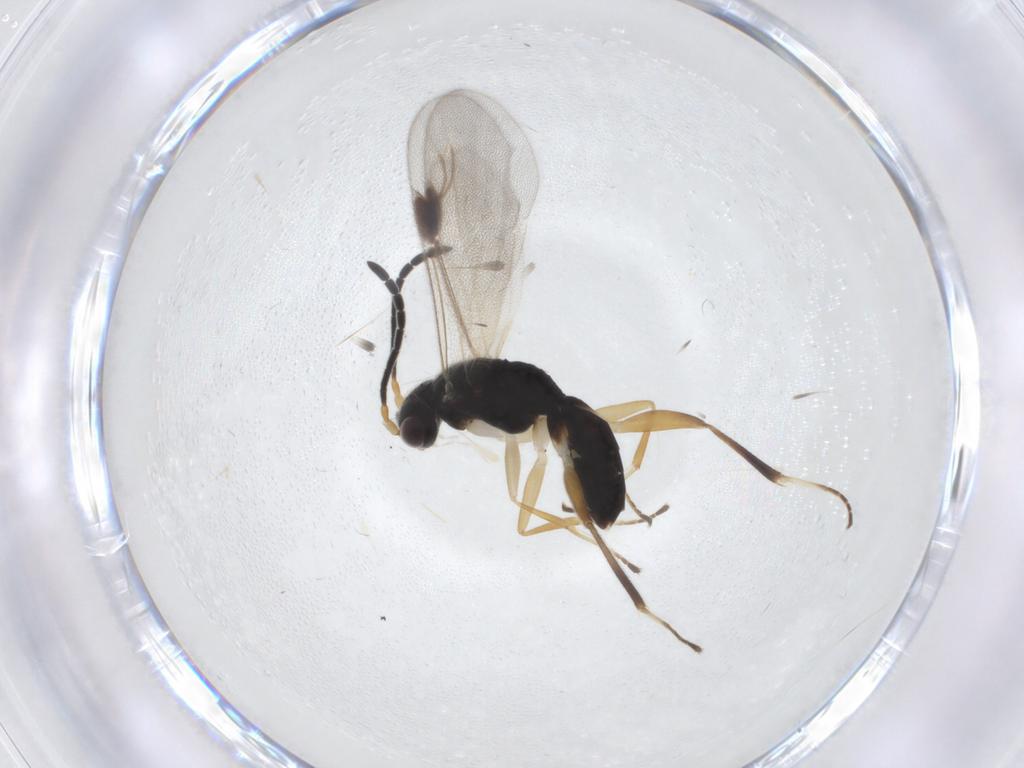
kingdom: Animalia
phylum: Arthropoda
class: Insecta
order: Hymenoptera
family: Dryinidae
